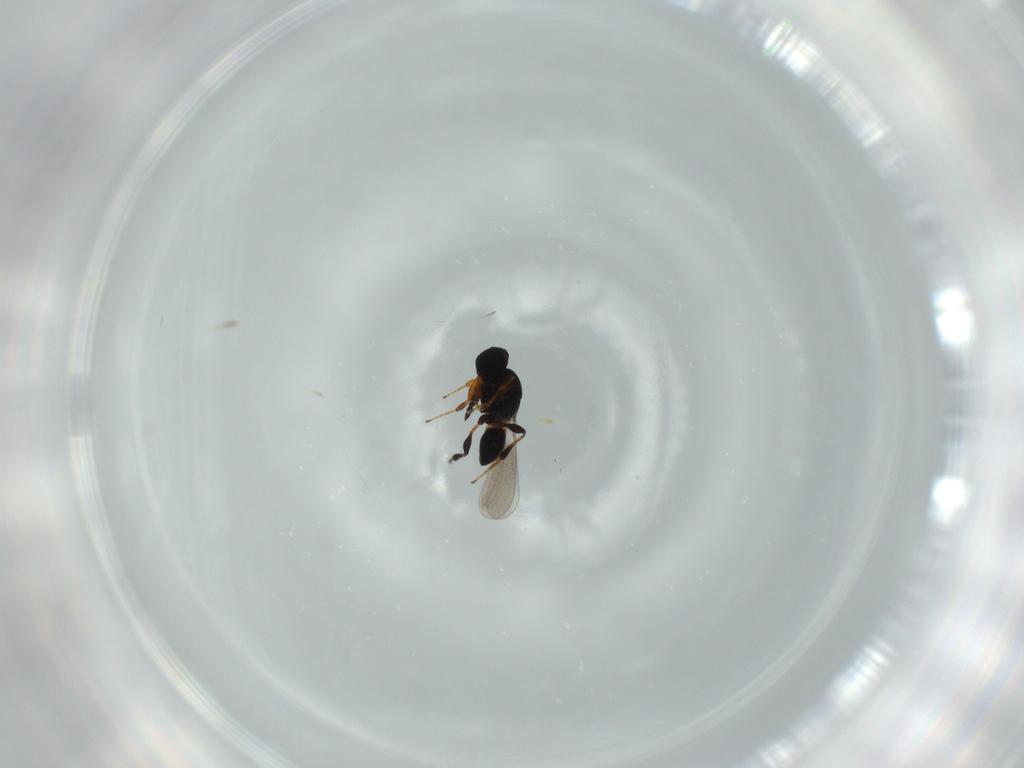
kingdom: Animalia
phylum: Arthropoda
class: Insecta
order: Hymenoptera
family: Platygastridae
